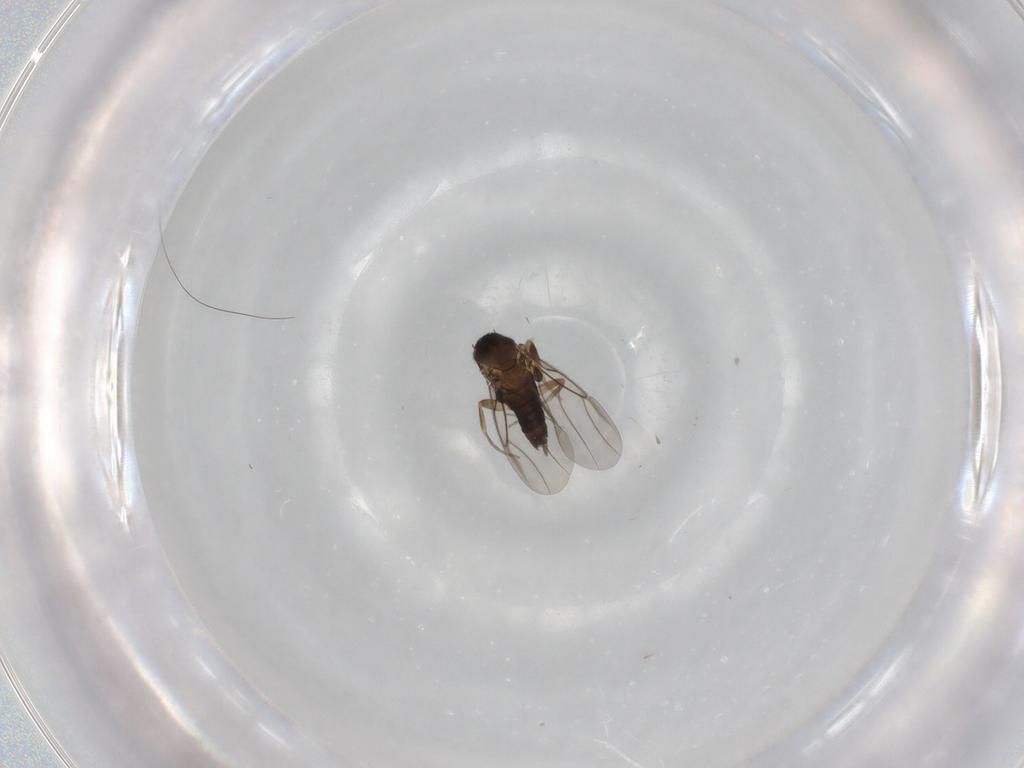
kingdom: Animalia
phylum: Arthropoda
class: Insecta
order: Diptera
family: Phoridae
